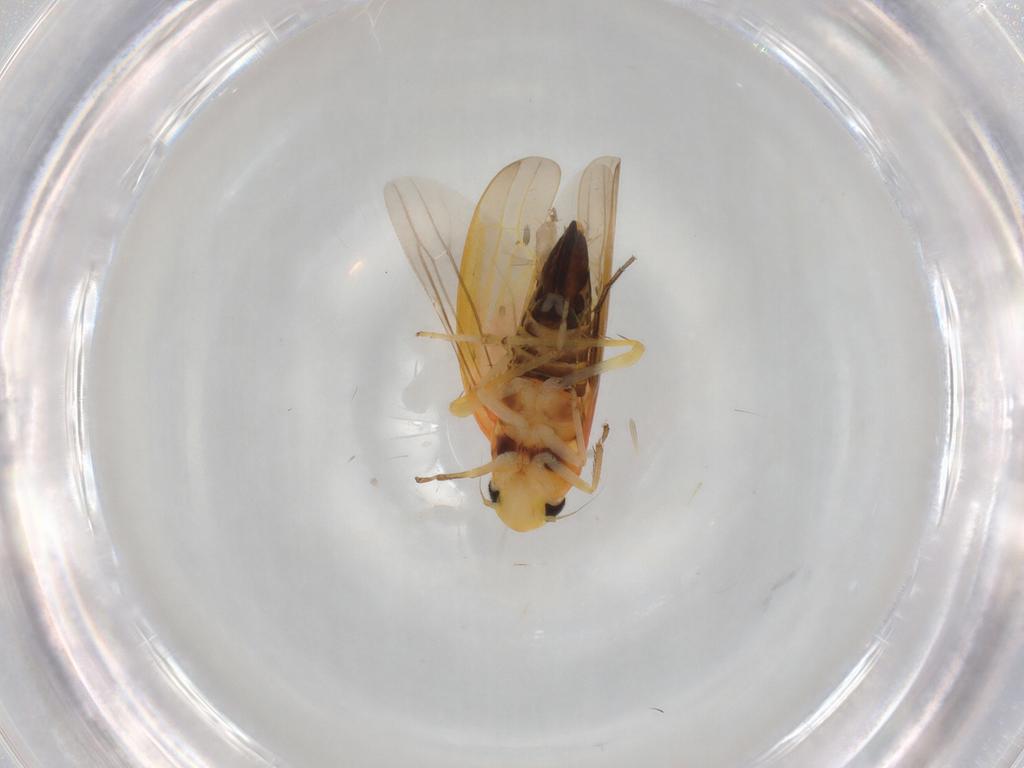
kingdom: Animalia
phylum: Arthropoda
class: Insecta
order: Hemiptera
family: Cicadellidae
